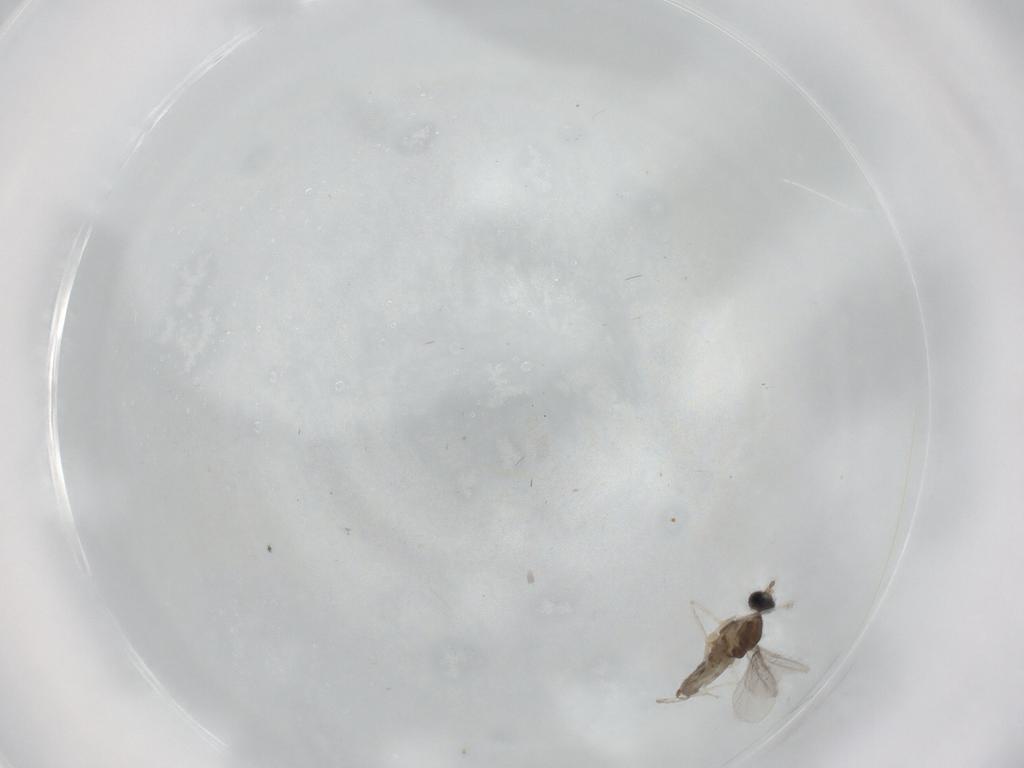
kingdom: Animalia
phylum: Arthropoda
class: Insecta
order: Diptera
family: Cecidomyiidae
